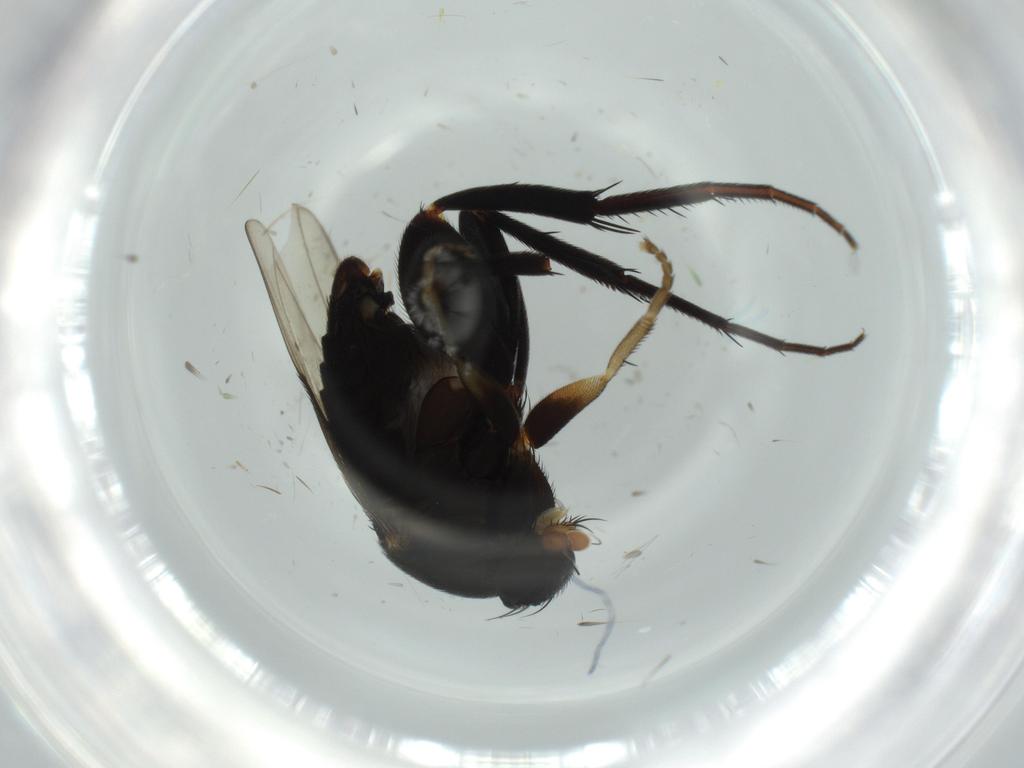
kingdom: Animalia
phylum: Arthropoda
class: Insecta
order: Diptera
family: Phoridae
